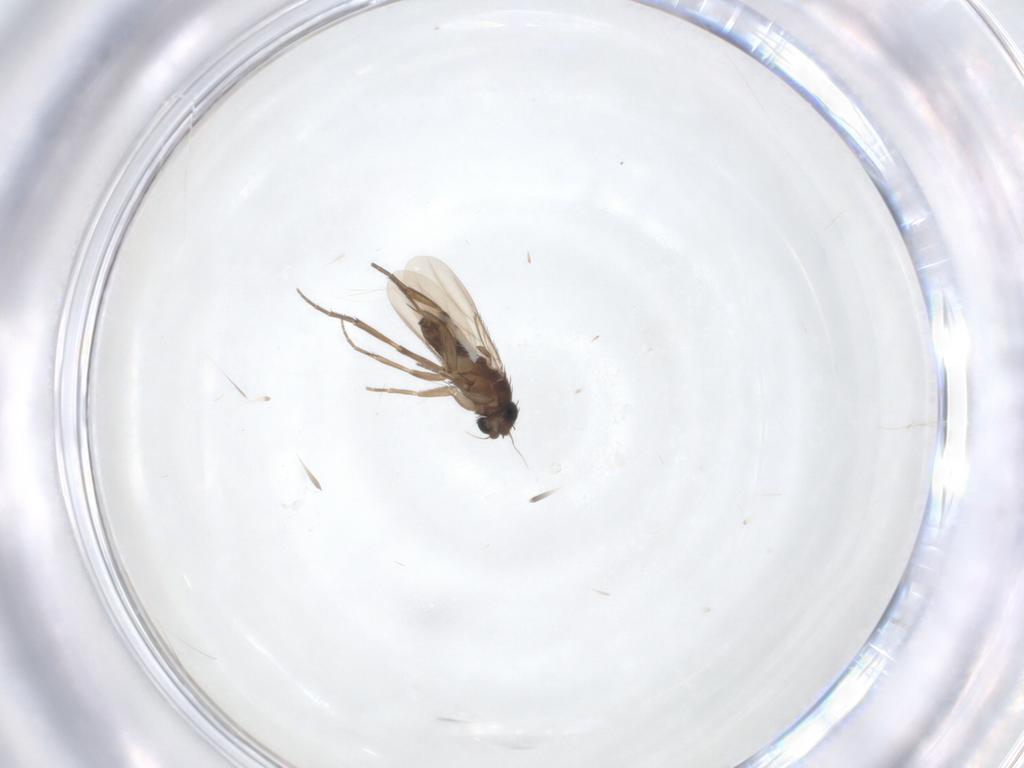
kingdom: Animalia
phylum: Arthropoda
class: Insecta
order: Diptera
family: Phoridae
